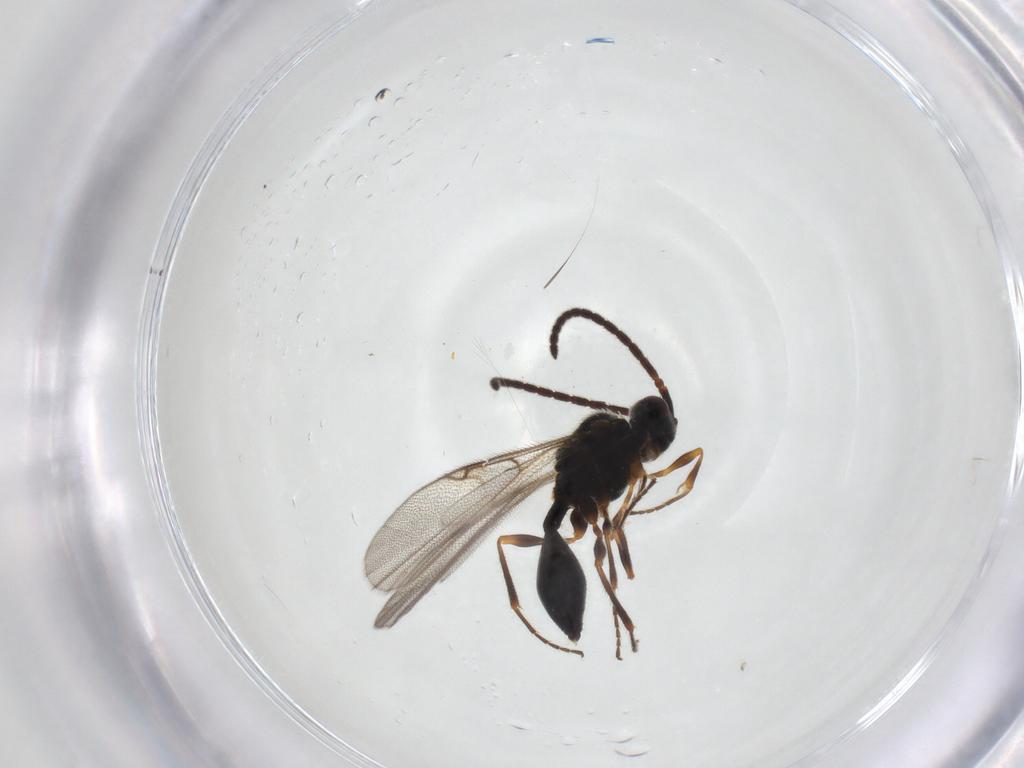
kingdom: Animalia
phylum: Arthropoda
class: Insecta
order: Hymenoptera
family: Diapriidae
